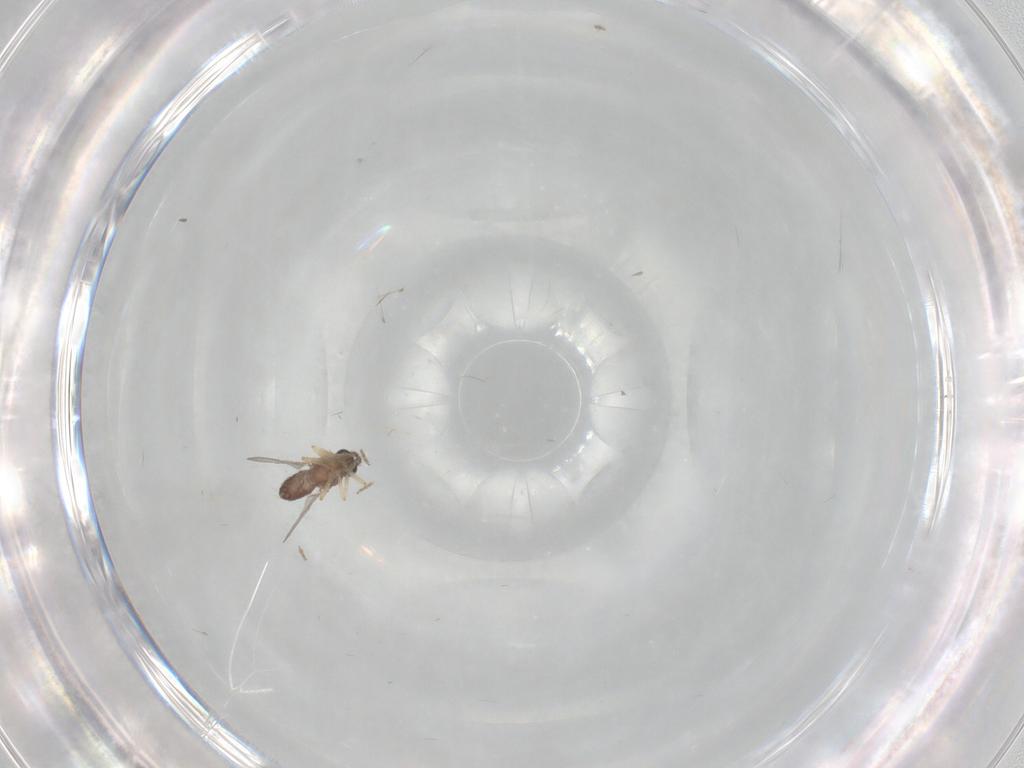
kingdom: Animalia
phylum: Arthropoda
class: Insecta
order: Diptera
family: Ceratopogonidae
